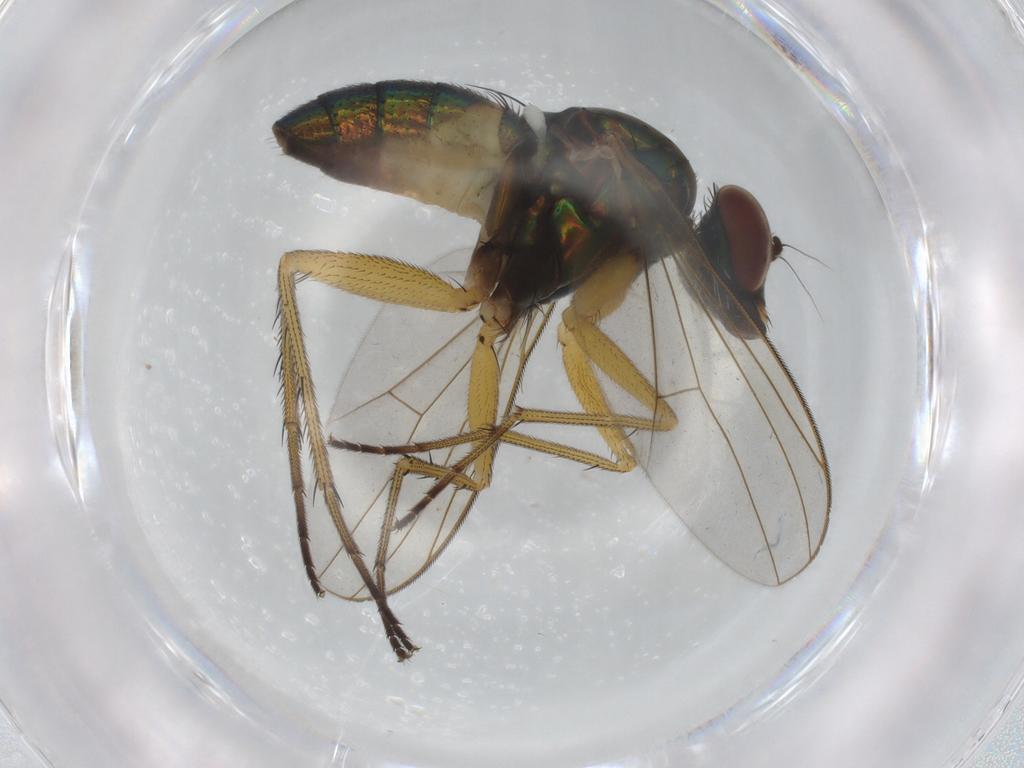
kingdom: Animalia
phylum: Arthropoda
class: Insecta
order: Diptera
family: Dolichopodidae
